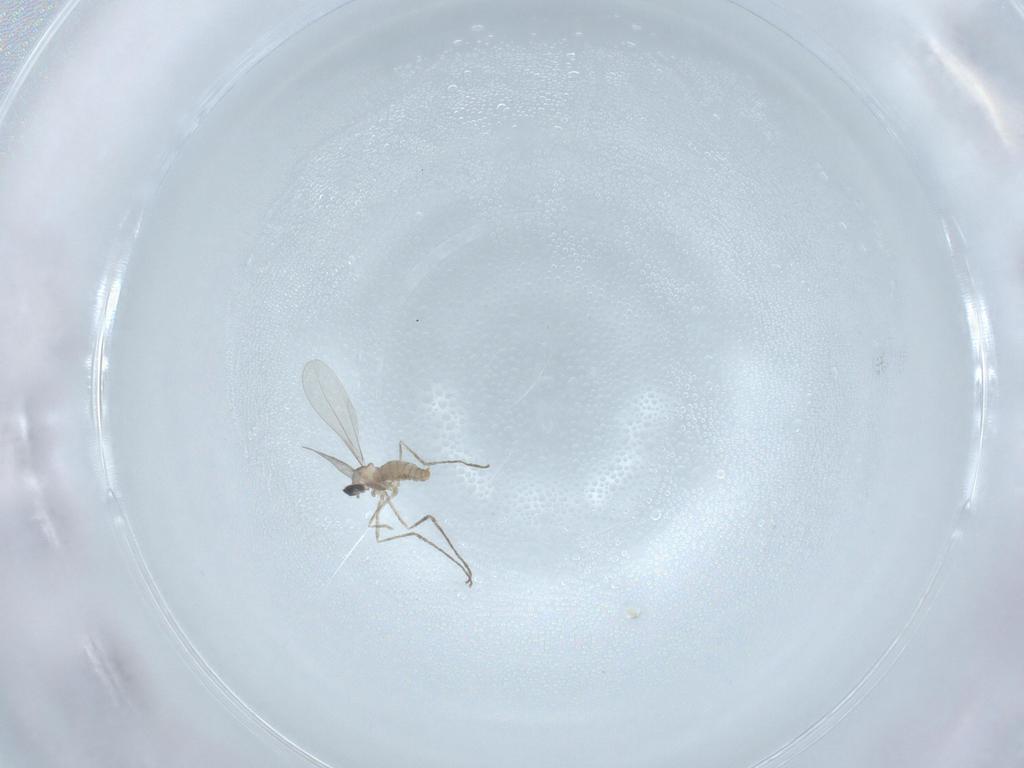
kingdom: Animalia
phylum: Arthropoda
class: Insecta
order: Diptera
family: Cecidomyiidae
